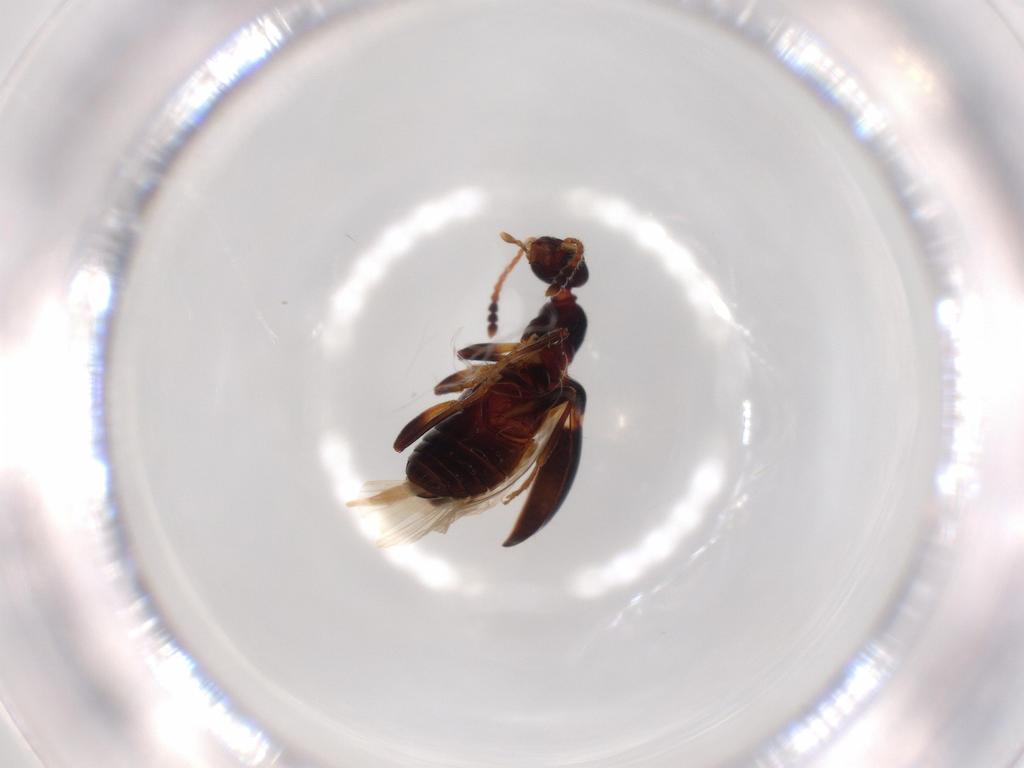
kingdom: Animalia
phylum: Arthropoda
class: Insecta
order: Coleoptera
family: Anthicidae
